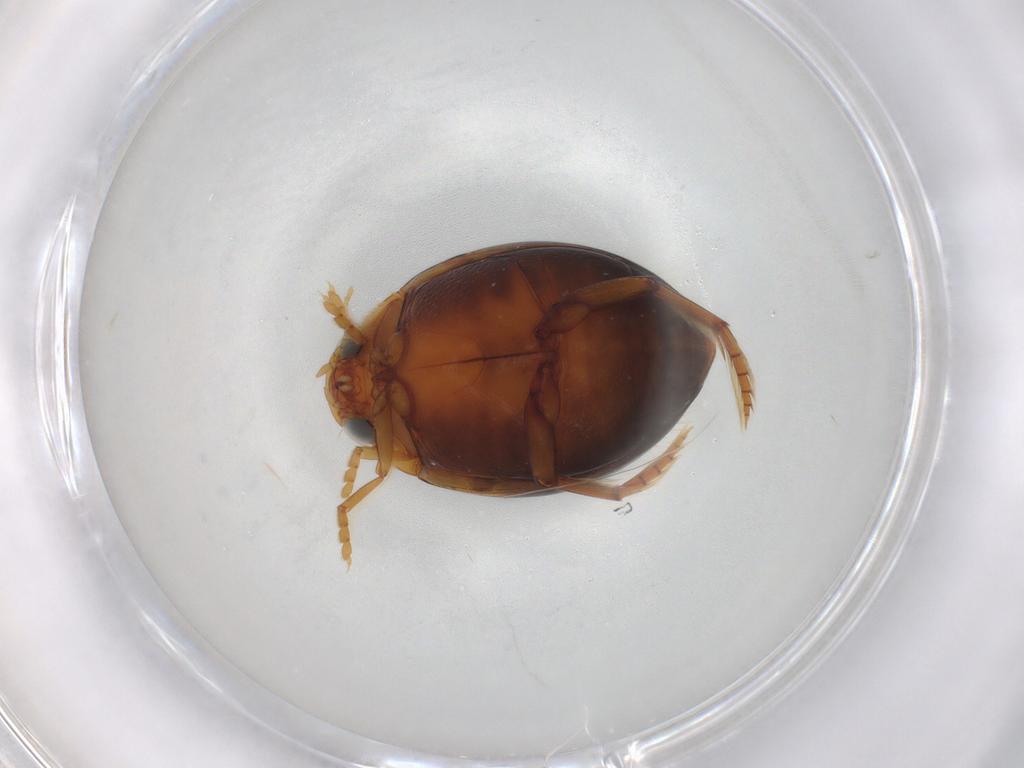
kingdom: Animalia
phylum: Arthropoda
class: Insecta
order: Coleoptera
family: Dytiscidae
